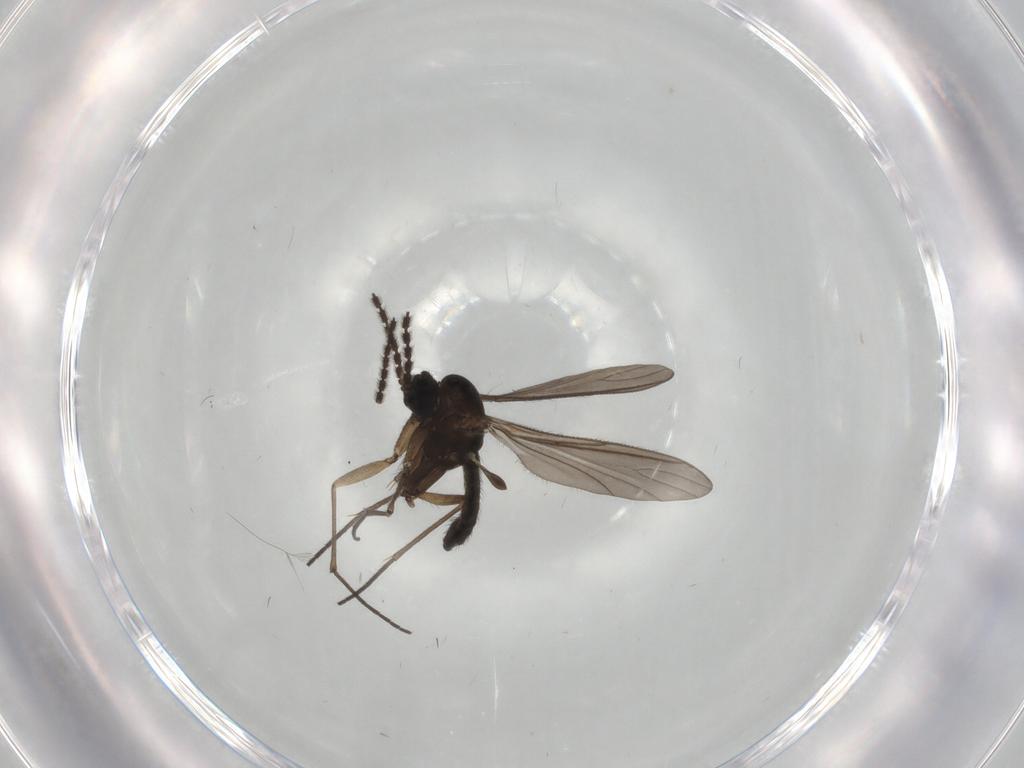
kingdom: Animalia
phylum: Arthropoda
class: Insecta
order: Diptera
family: Sciaridae
